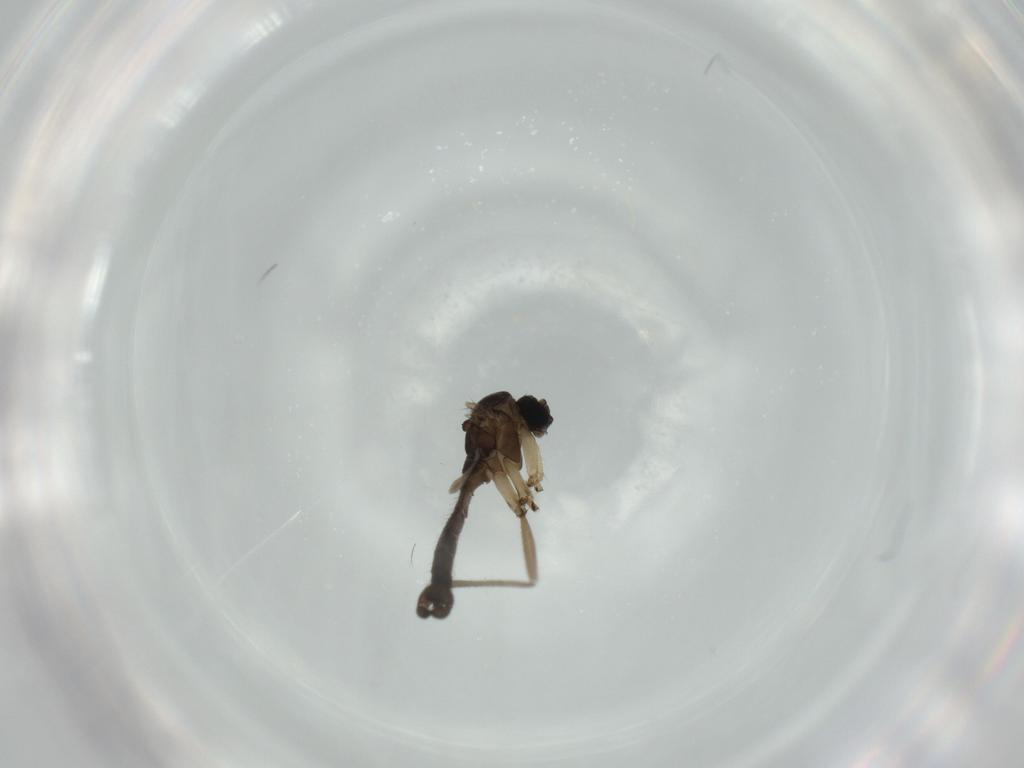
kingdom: Animalia
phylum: Arthropoda
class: Insecta
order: Diptera
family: Sciaridae
